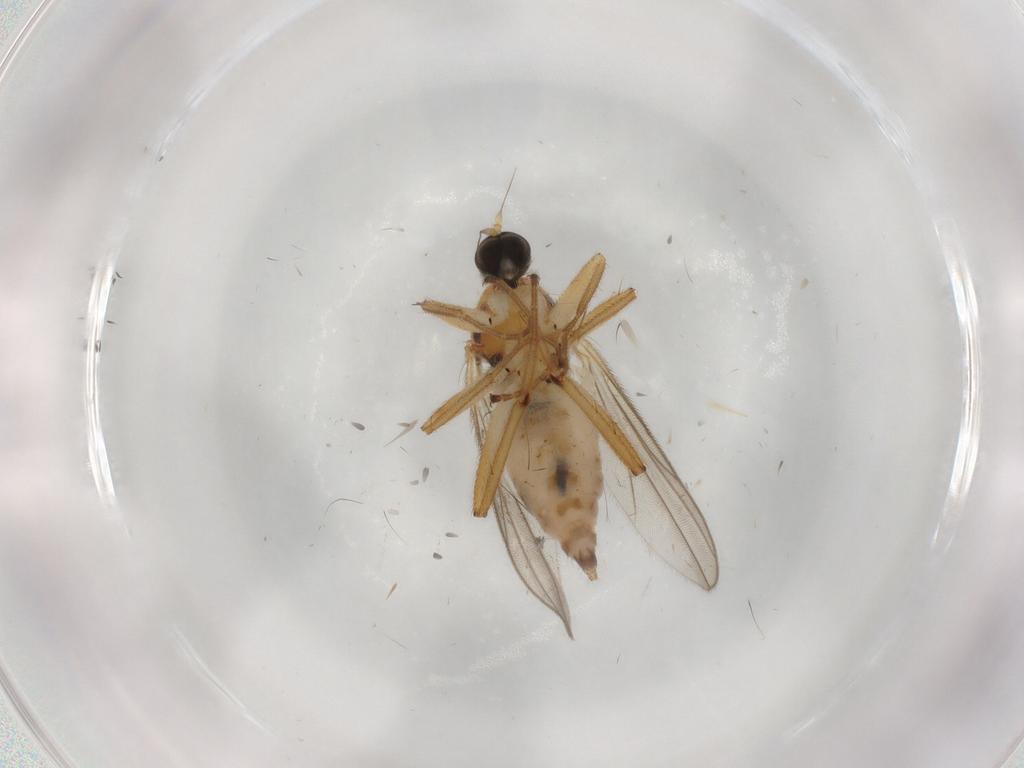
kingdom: Animalia
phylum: Arthropoda
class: Insecta
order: Diptera
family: Hybotidae
